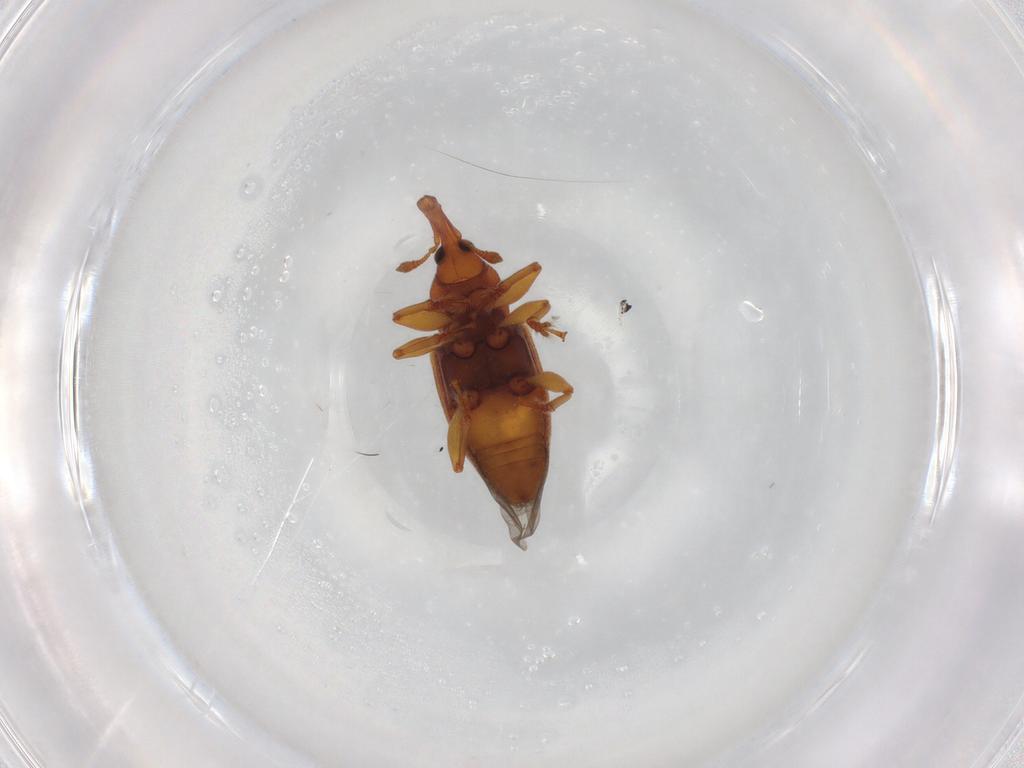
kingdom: Animalia
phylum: Arthropoda
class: Insecta
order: Coleoptera
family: Curculionidae
